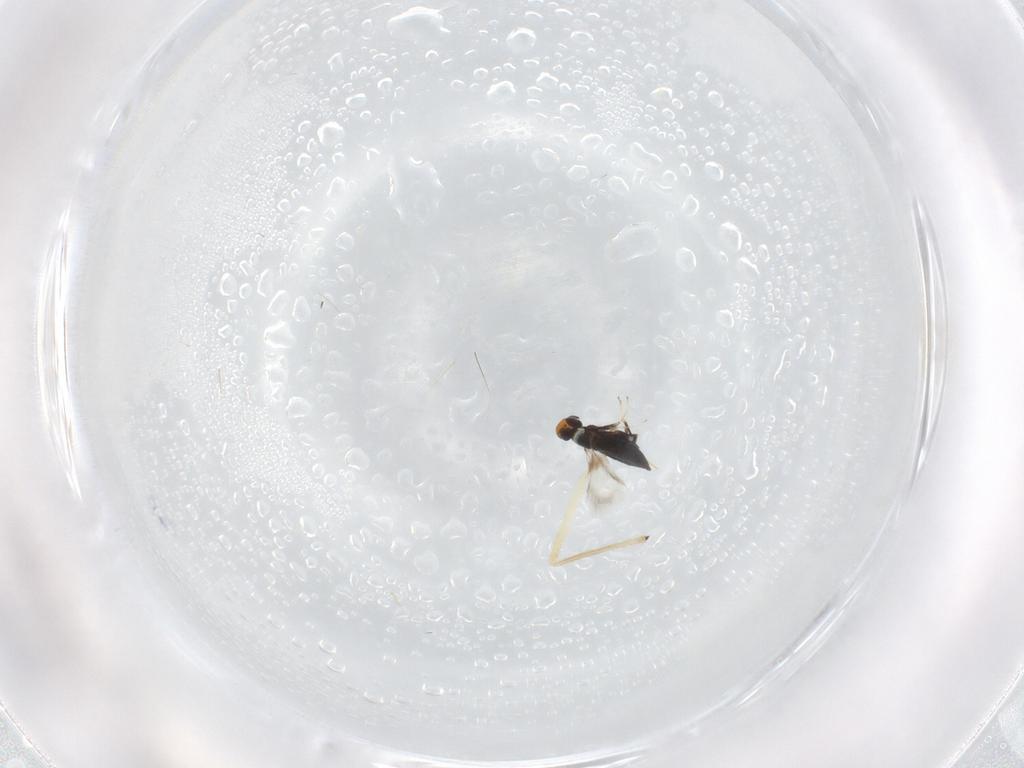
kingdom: Animalia
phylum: Arthropoda
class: Insecta
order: Hymenoptera
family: Signiphoridae
